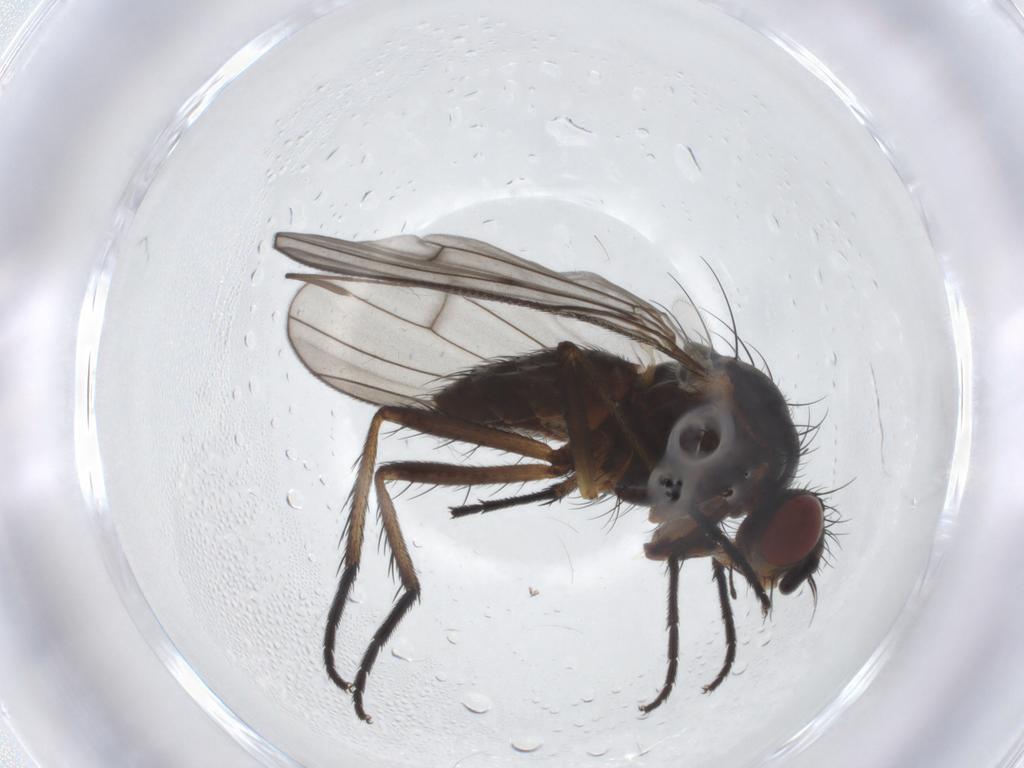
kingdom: Animalia
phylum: Arthropoda
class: Insecta
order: Diptera
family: Anthomyiidae
